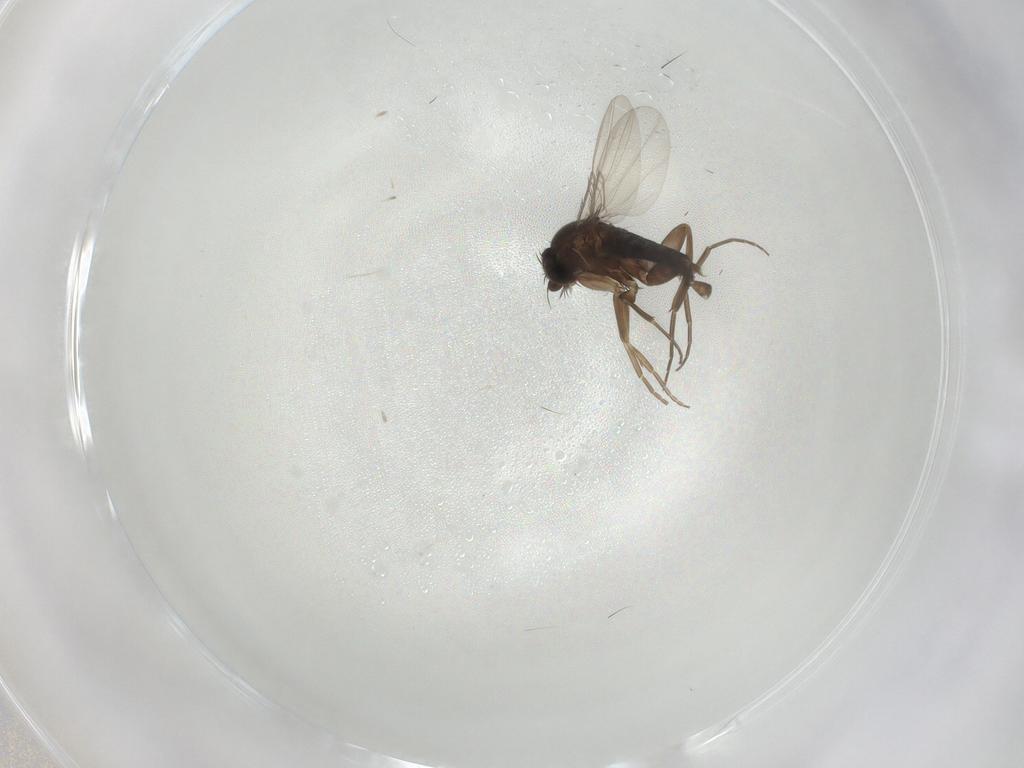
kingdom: Animalia
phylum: Arthropoda
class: Insecta
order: Diptera
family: Phoridae
